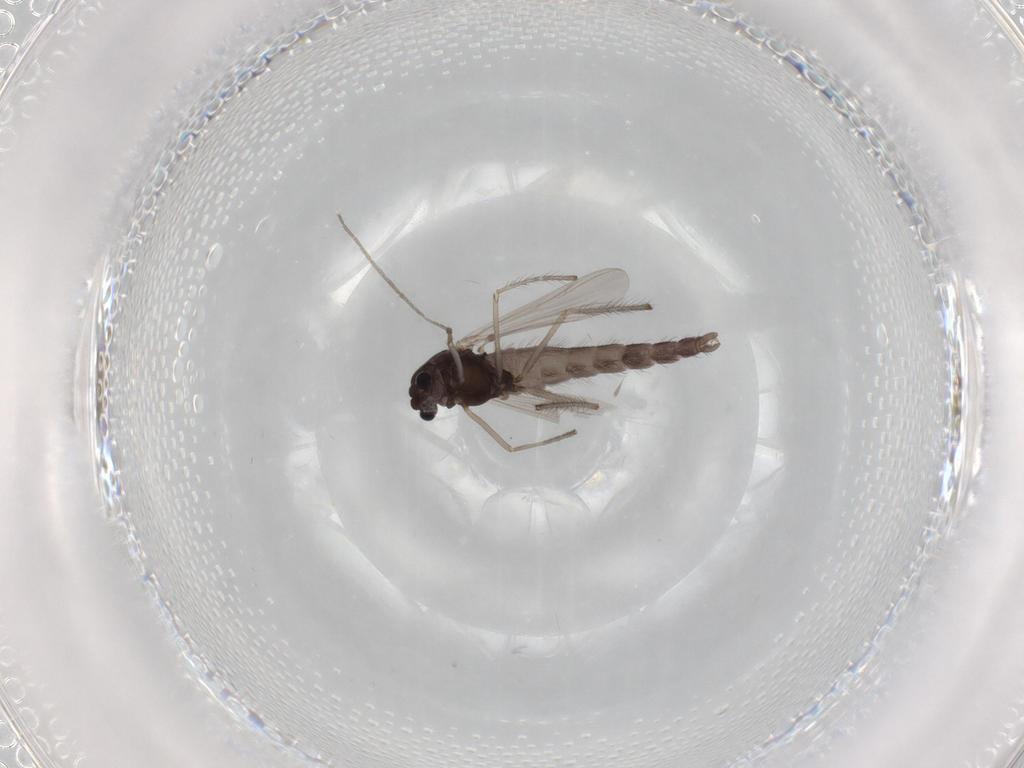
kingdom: Animalia
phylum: Arthropoda
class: Insecta
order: Diptera
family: Chironomidae
